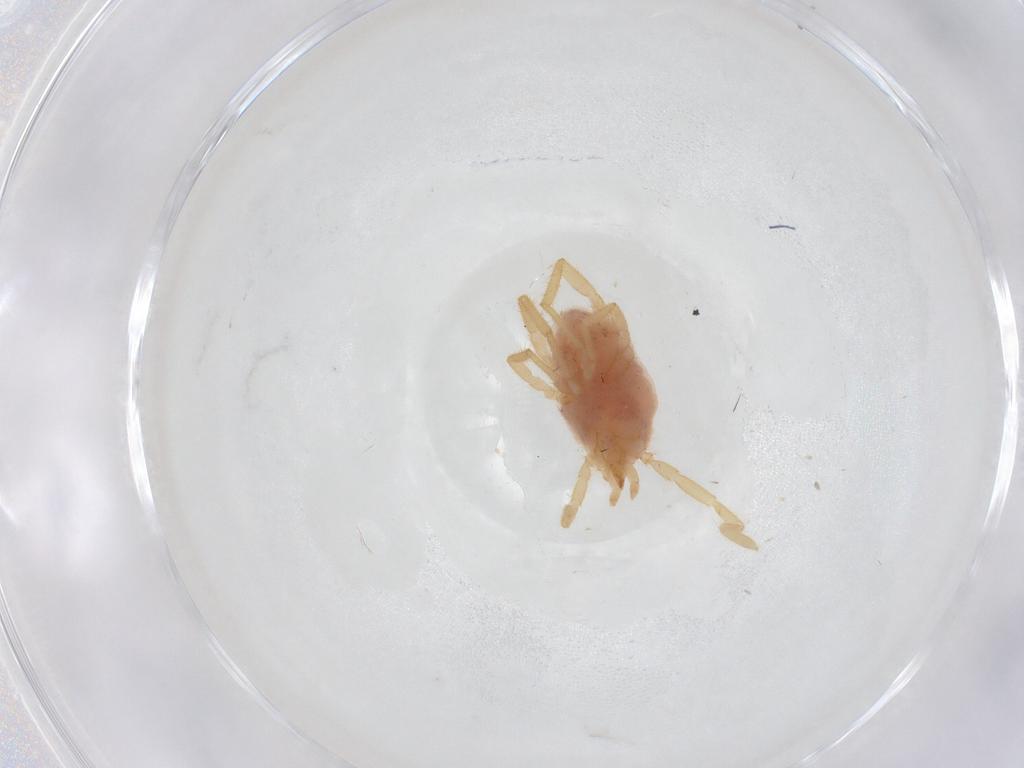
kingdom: Animalia
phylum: Arthropoda
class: Arachnida
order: Trombidiformes
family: Erythraeidae
